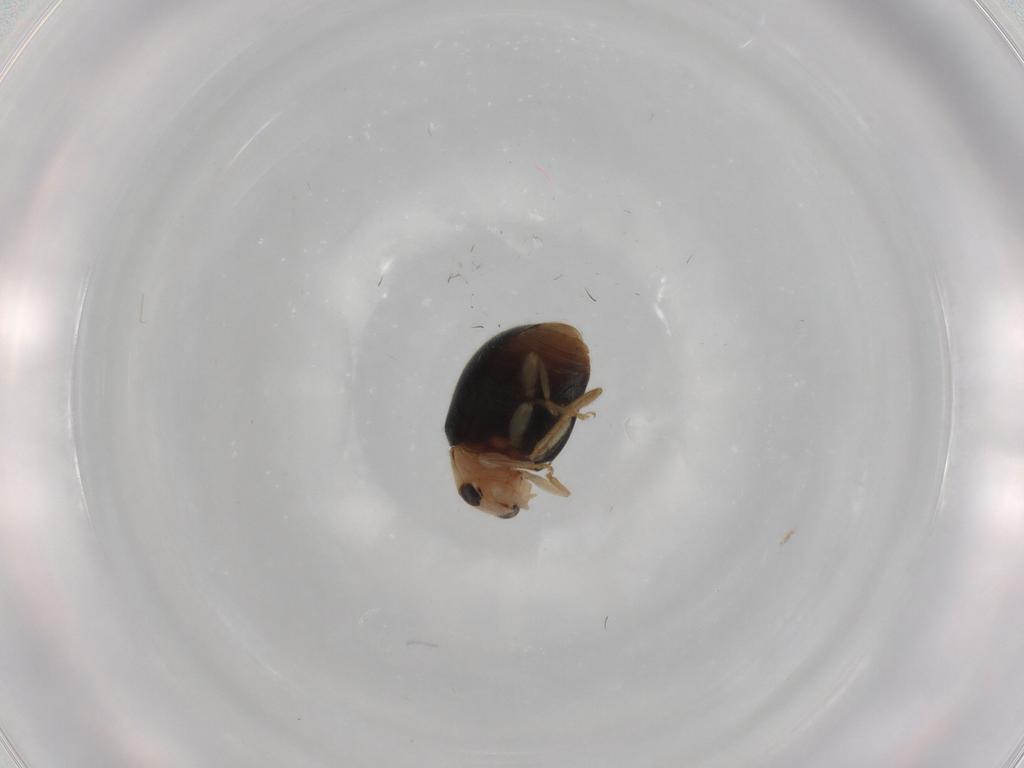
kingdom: Animalia
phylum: Arthropoda
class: Insecta
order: Coleoptera
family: Coccinellidae
